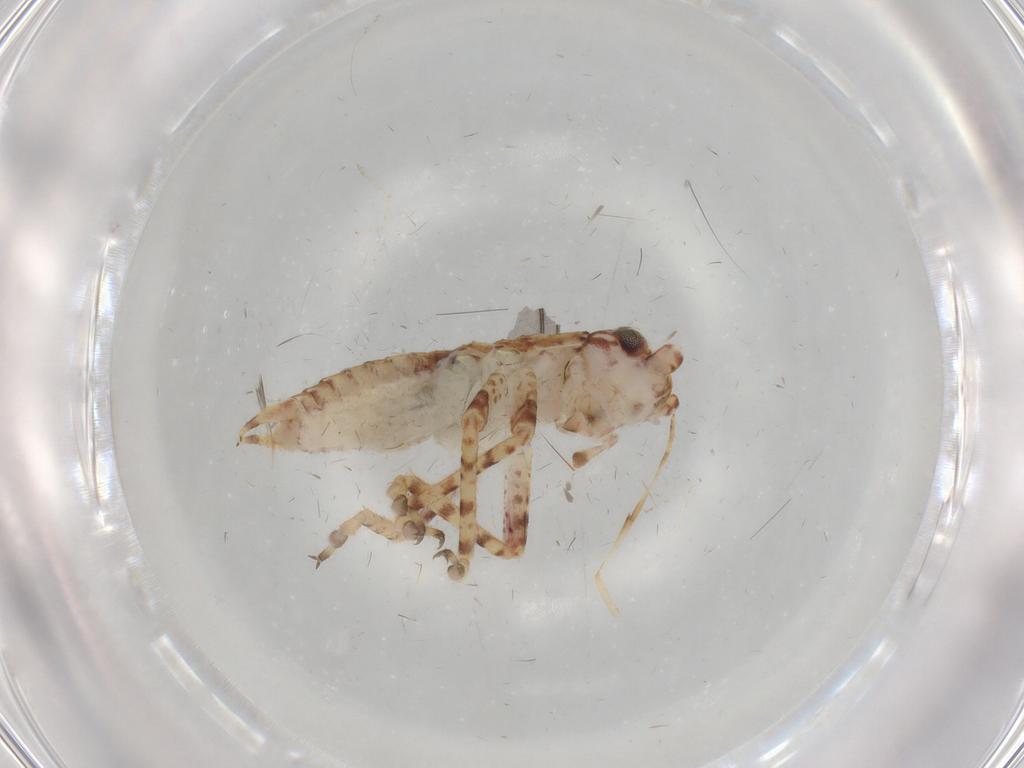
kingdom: Animalia
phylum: Arthropoda
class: Insecta
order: Orthoptera
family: Gryllidae
